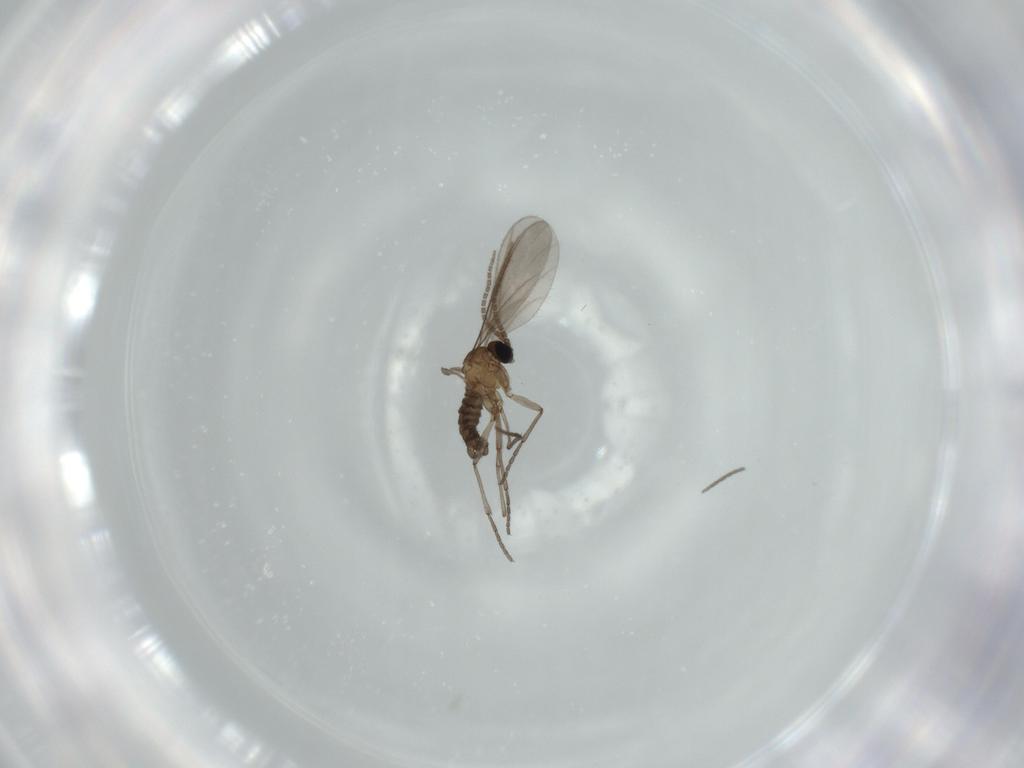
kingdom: Animalia
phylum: Arthropoda
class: Insecta
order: Diptera
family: Sciaridae
